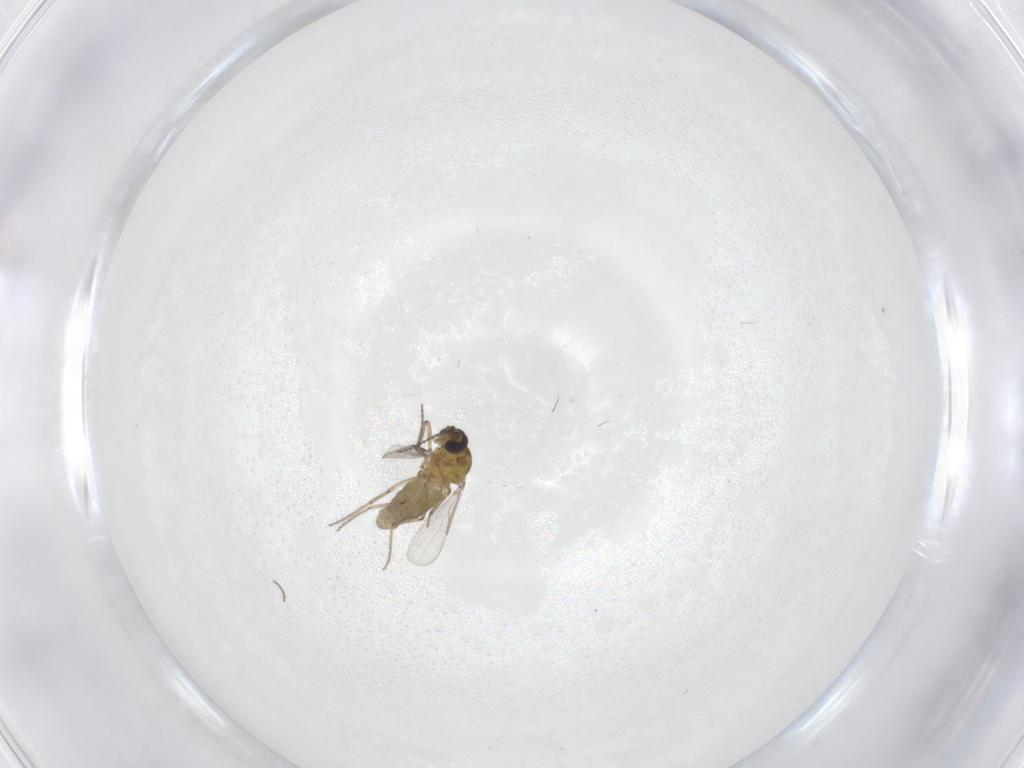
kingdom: Animalia
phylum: Arthropoda
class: Insecta
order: Diptera
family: Ceratopogonidae
